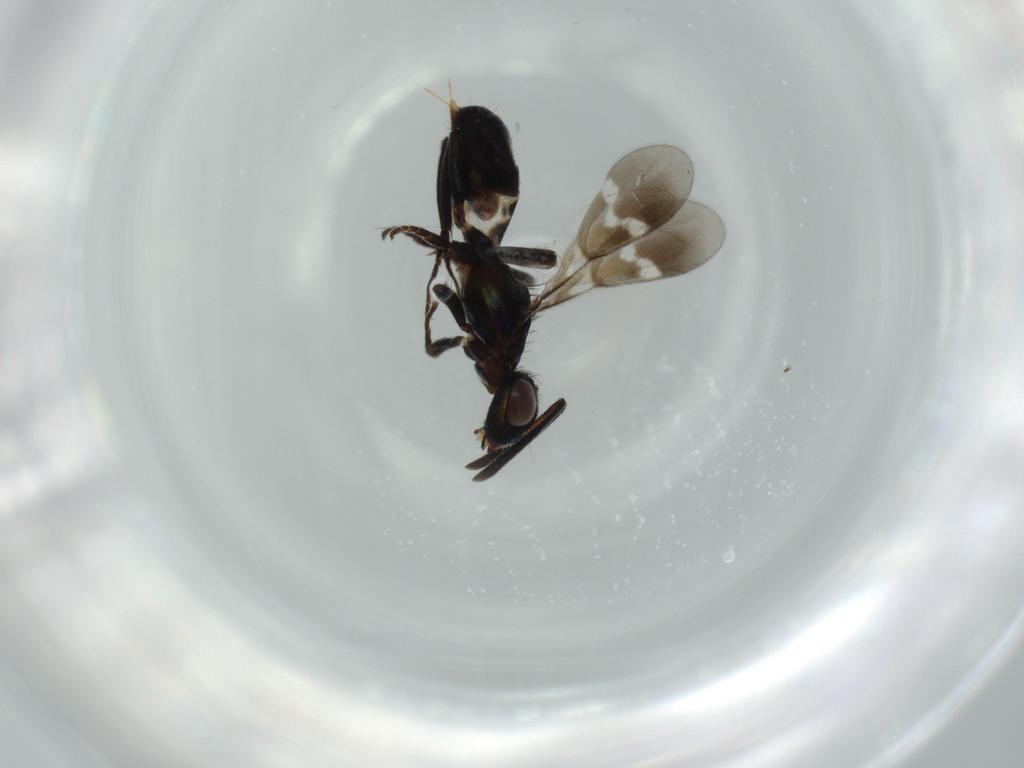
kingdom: Animalia
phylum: Arthropoda
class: Insecta
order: Hymenoptera
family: Eupelmidae
